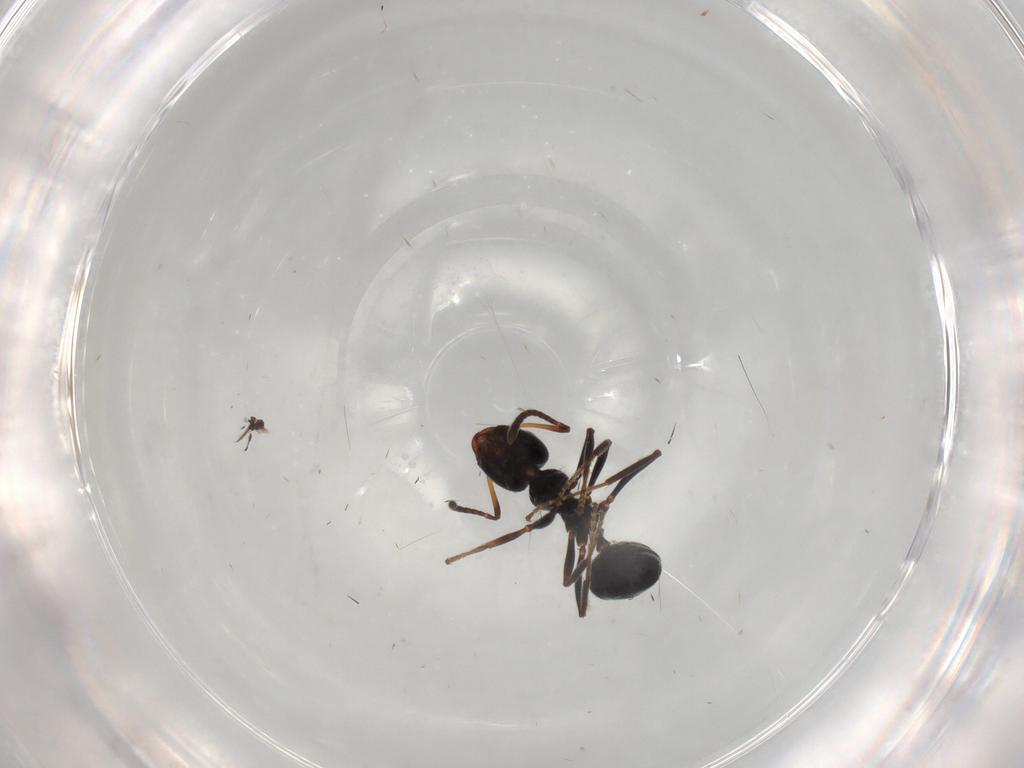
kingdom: Animalia
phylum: Arthropoda
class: Insecta
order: Hymenoptera
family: Formicidae
